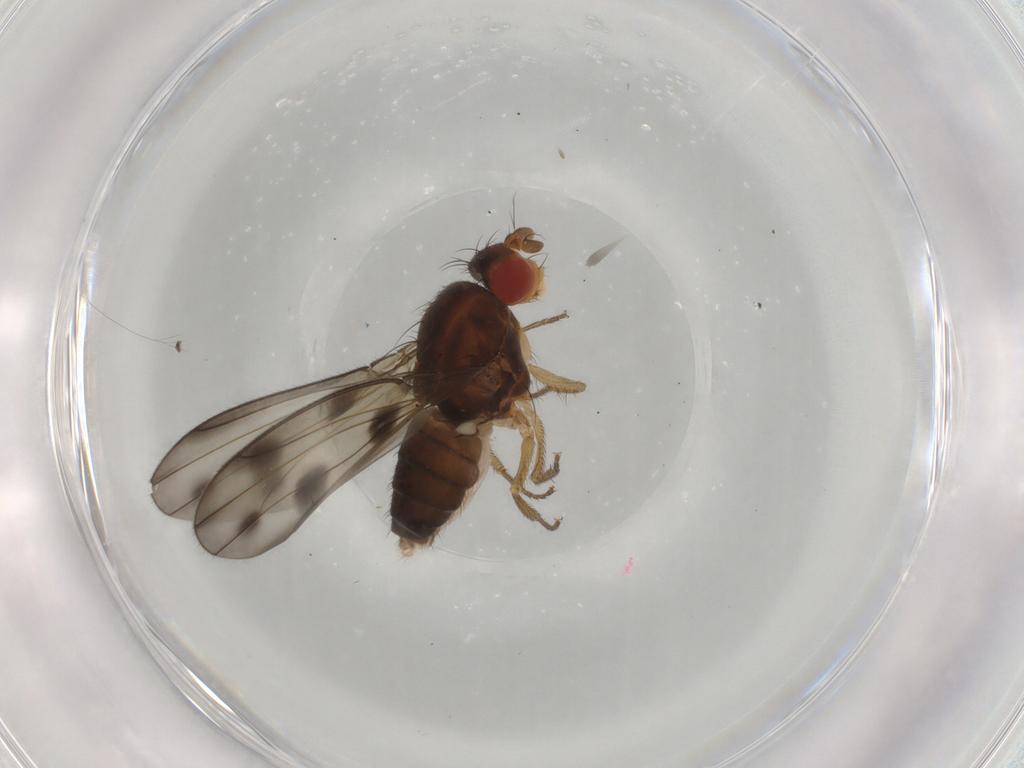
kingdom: Animalia
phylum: Arthropoda
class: Insecta
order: Diptera
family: Drosophilidae
